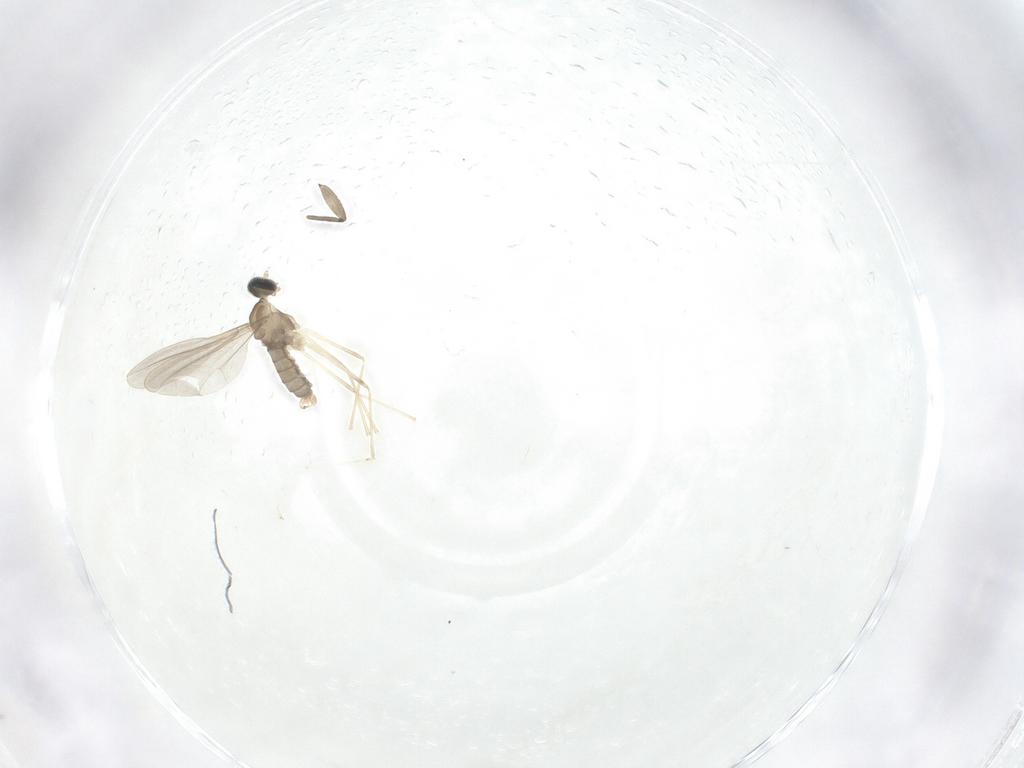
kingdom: Animalia
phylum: Arthropoda
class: Insecta
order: Diptera
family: Cecidomyiidae
